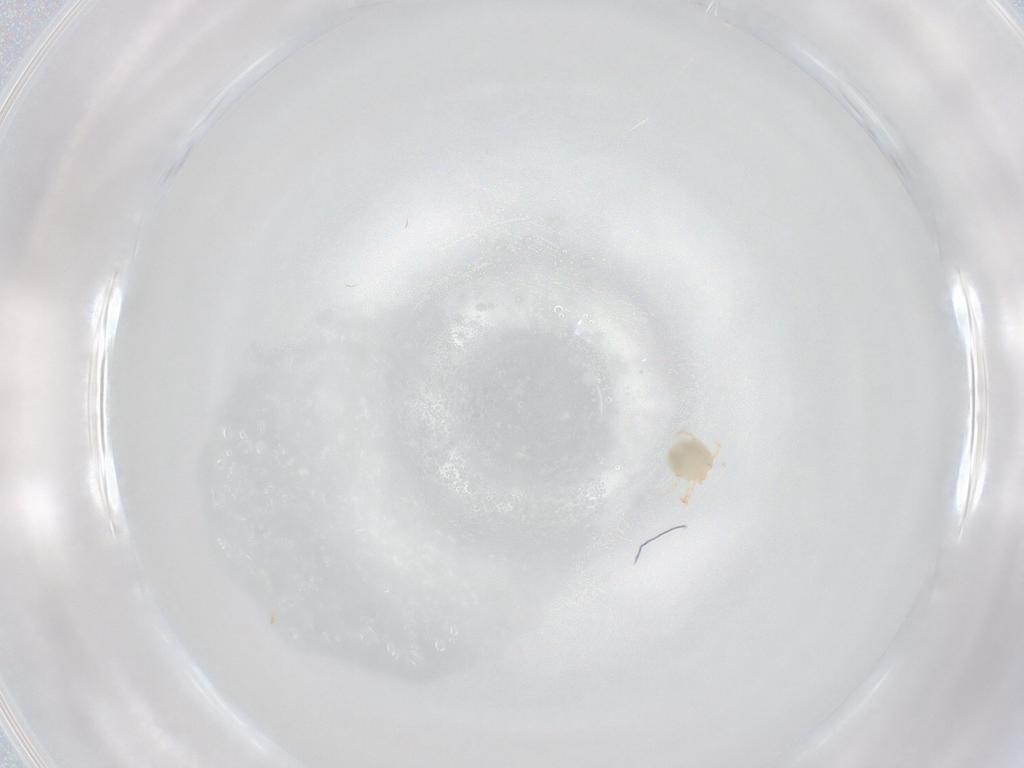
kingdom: Animalia
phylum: Arthropoda
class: Arachnida
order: Trombidiformes
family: Sperchontidae
